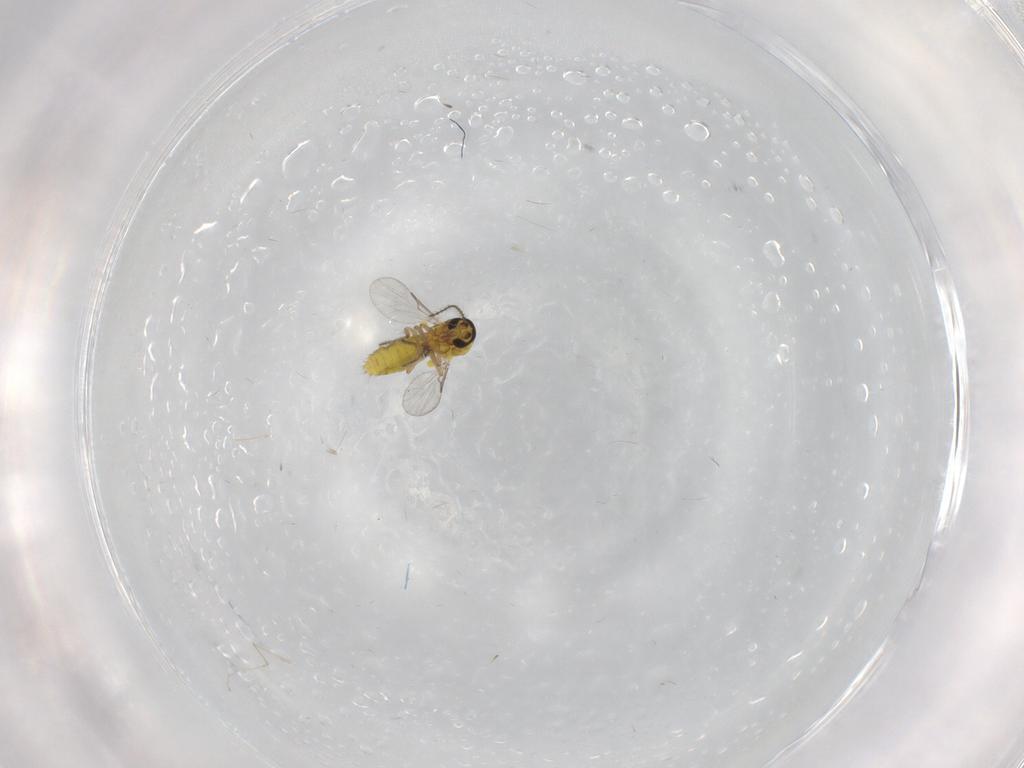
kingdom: Animalia
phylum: Arthropoda
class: Insecta
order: Diptera
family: Ceratopogonidae
